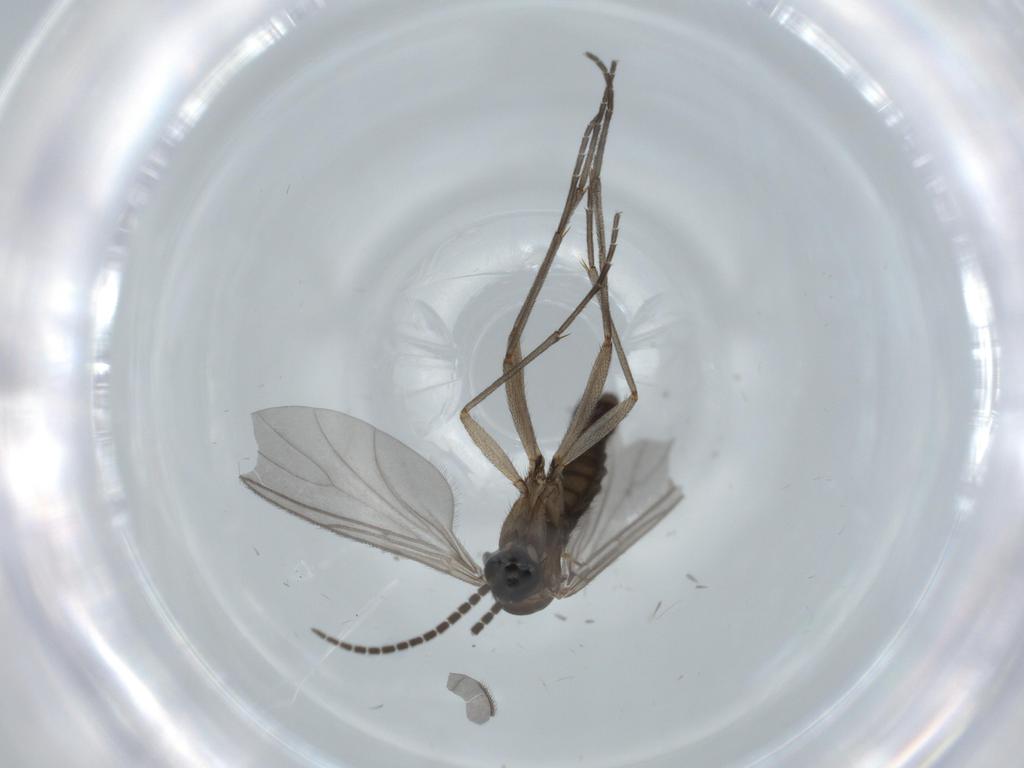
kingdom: Animalia
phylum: Arthropoda
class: Insecta
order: Diptera
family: Sciaridae
